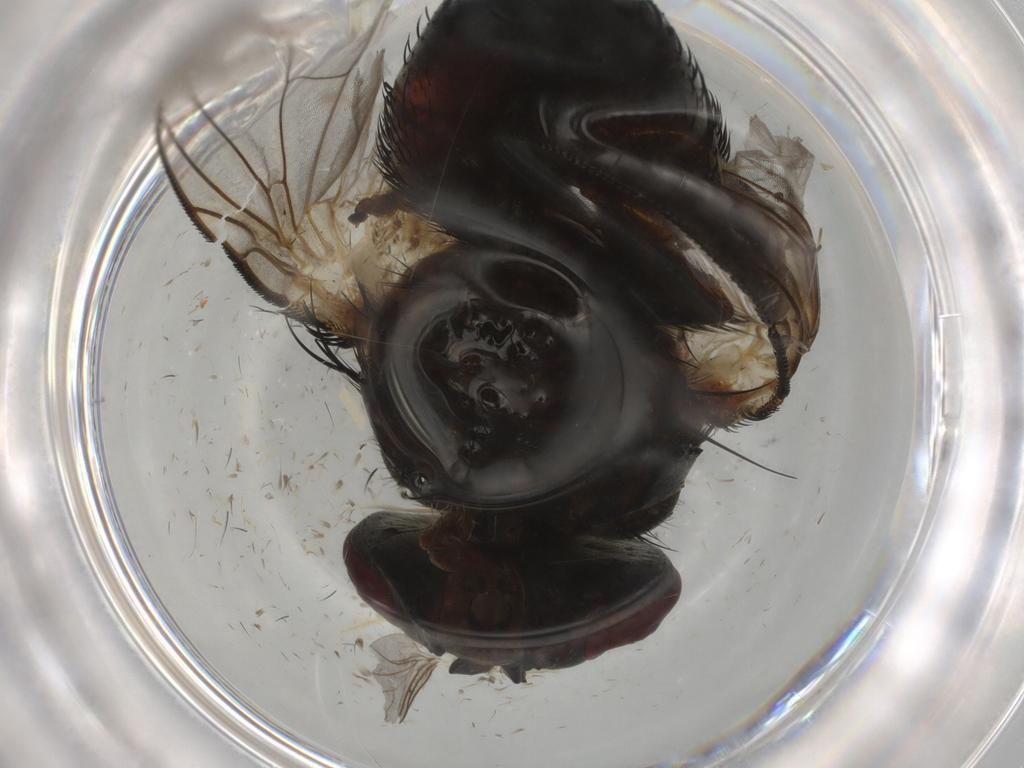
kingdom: Animalia
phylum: Arthropoda
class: Insecta
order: Diptera
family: Tachinidae
